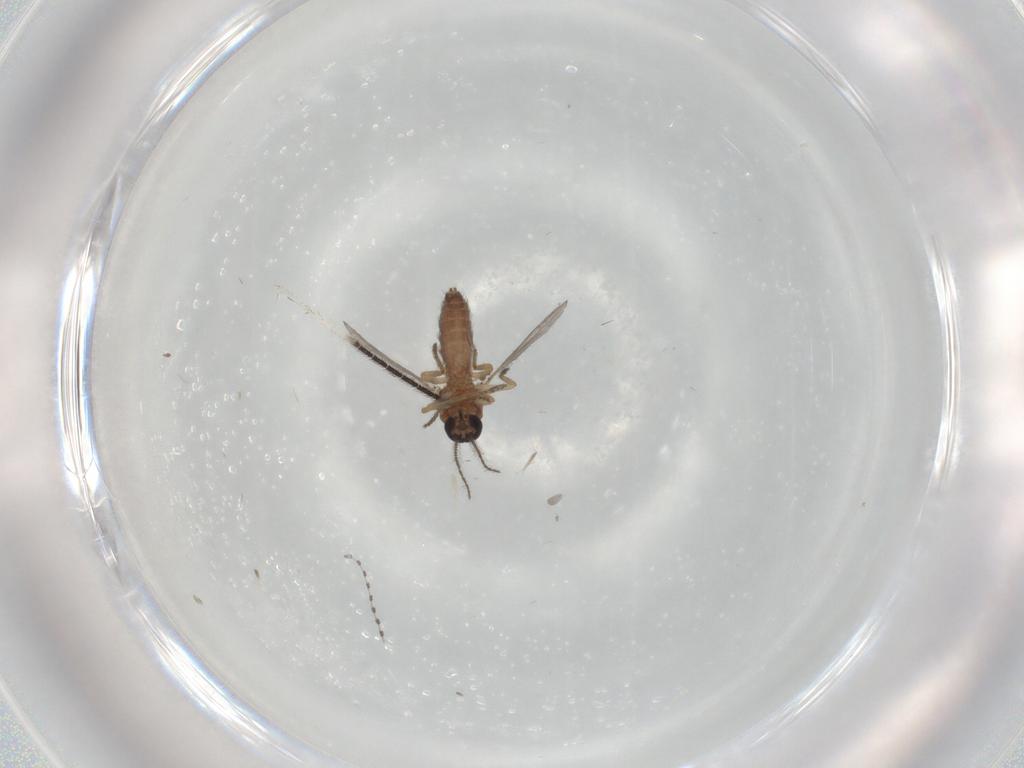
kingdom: Animalia
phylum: Arthropoda
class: Insecta
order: Diptera
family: Ceratopogonidae
